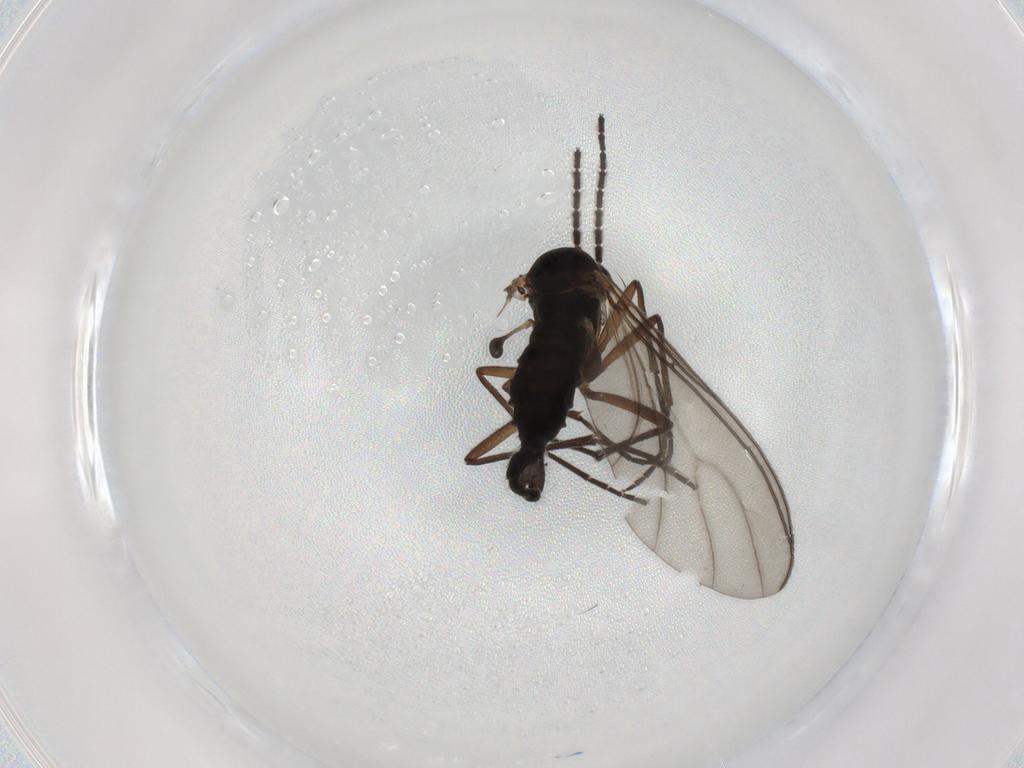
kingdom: Animalia
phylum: Arthropoda
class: Insecta
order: Diptera
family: Sciaridae
